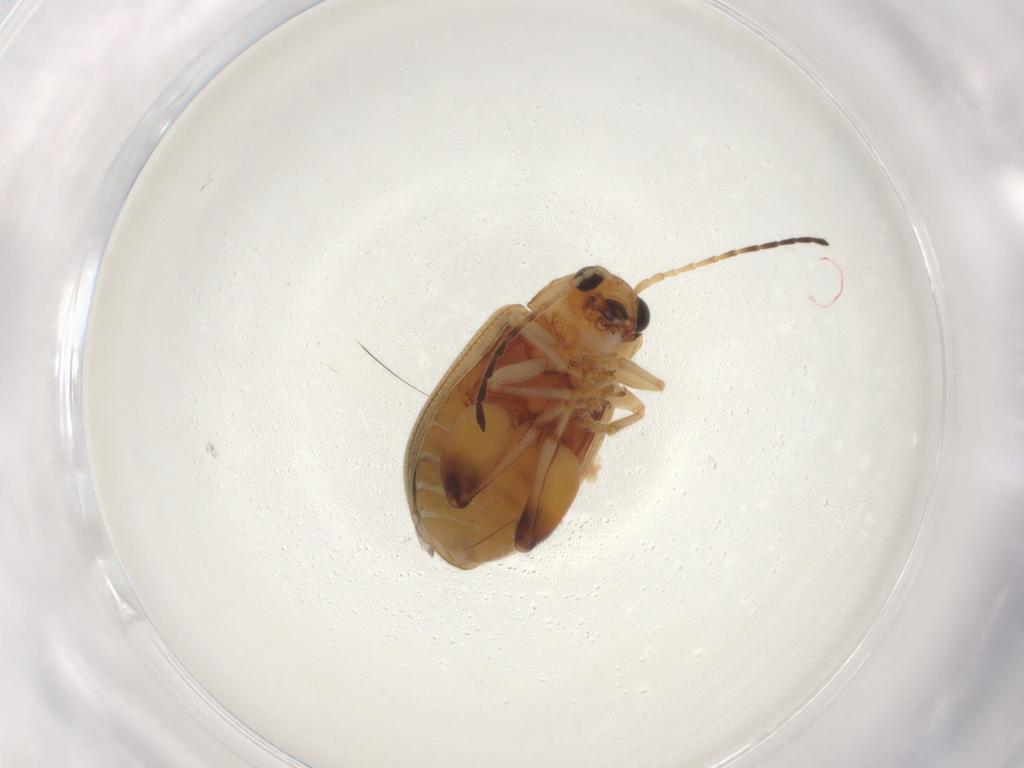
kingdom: Animalia
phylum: Arthropoda
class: Insecta
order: Coleoptera
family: Chrysomelidae
